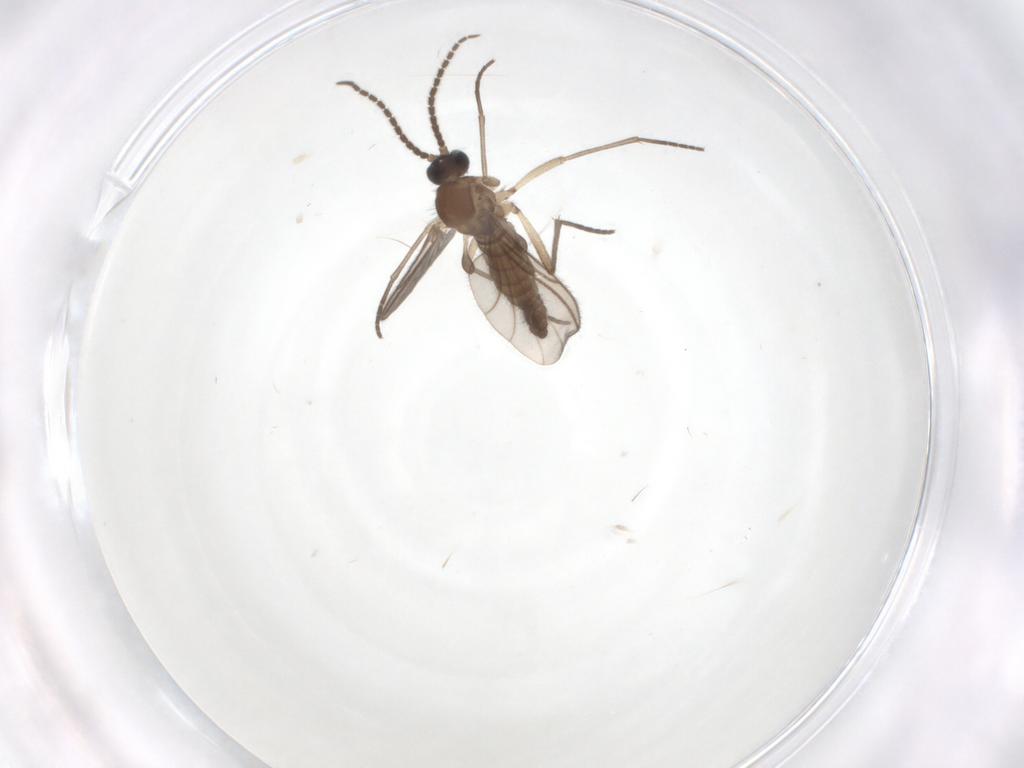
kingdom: Animalia
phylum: Arthropoda
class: Insecta
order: Diptera
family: Sciaridae
